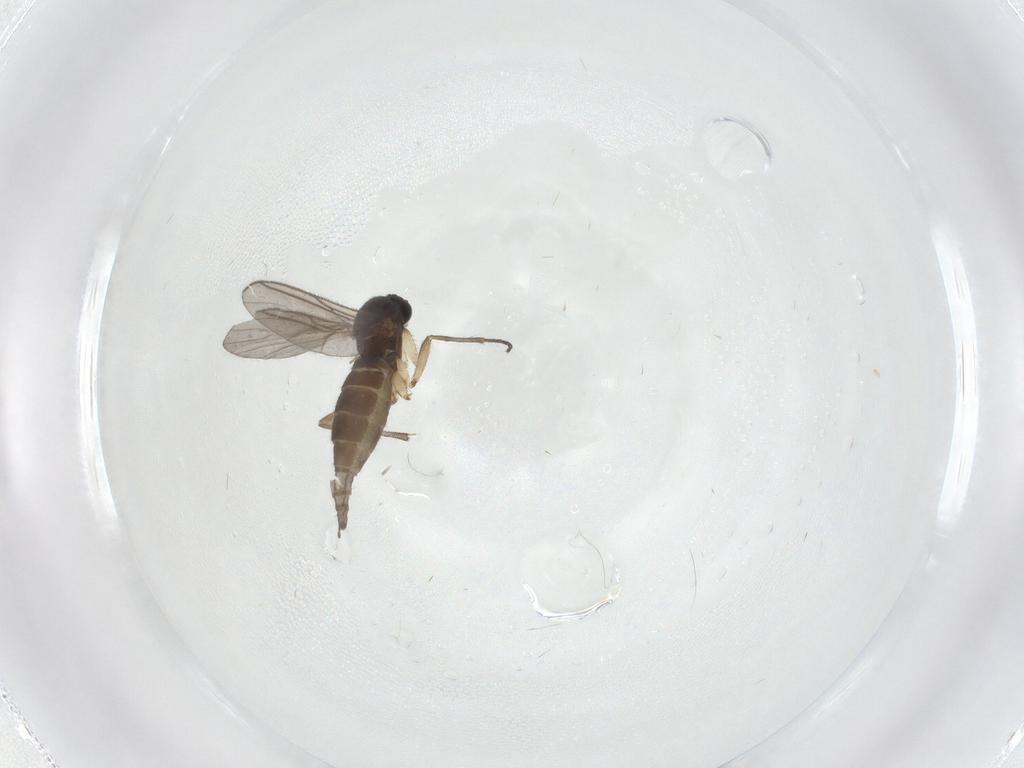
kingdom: Animalia
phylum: Arthropoda
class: Insecta
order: Diptera
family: Sciaridae
